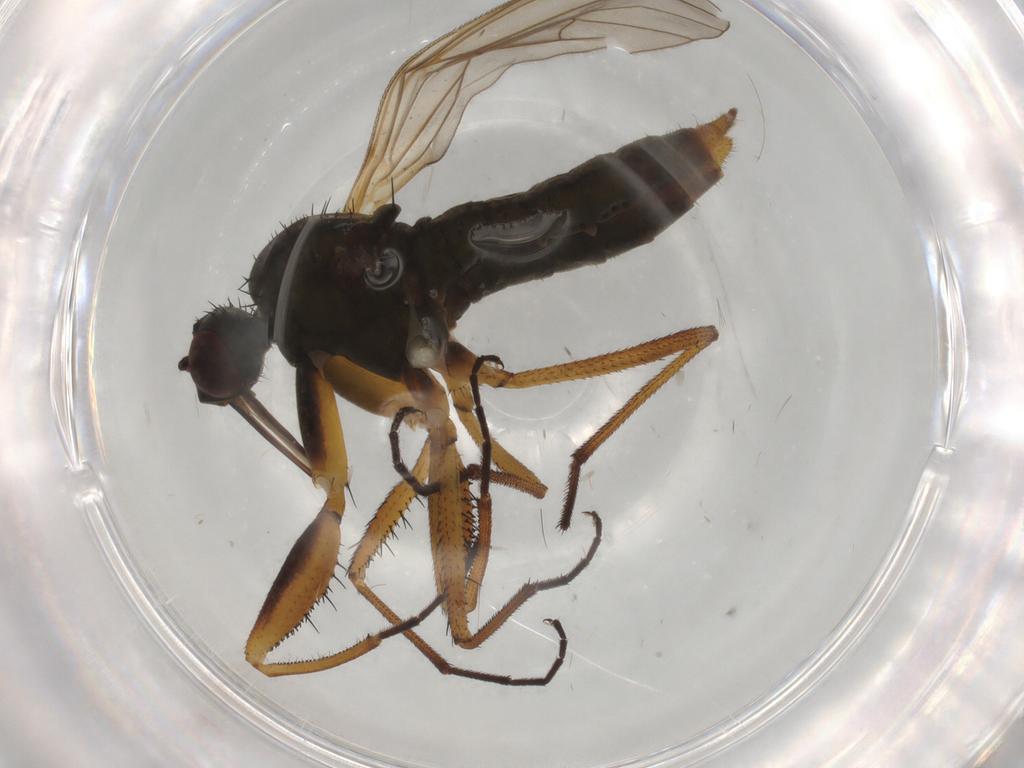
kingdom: Animalia
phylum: Arthropoda
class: Insecta
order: Diptera
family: Empididae
